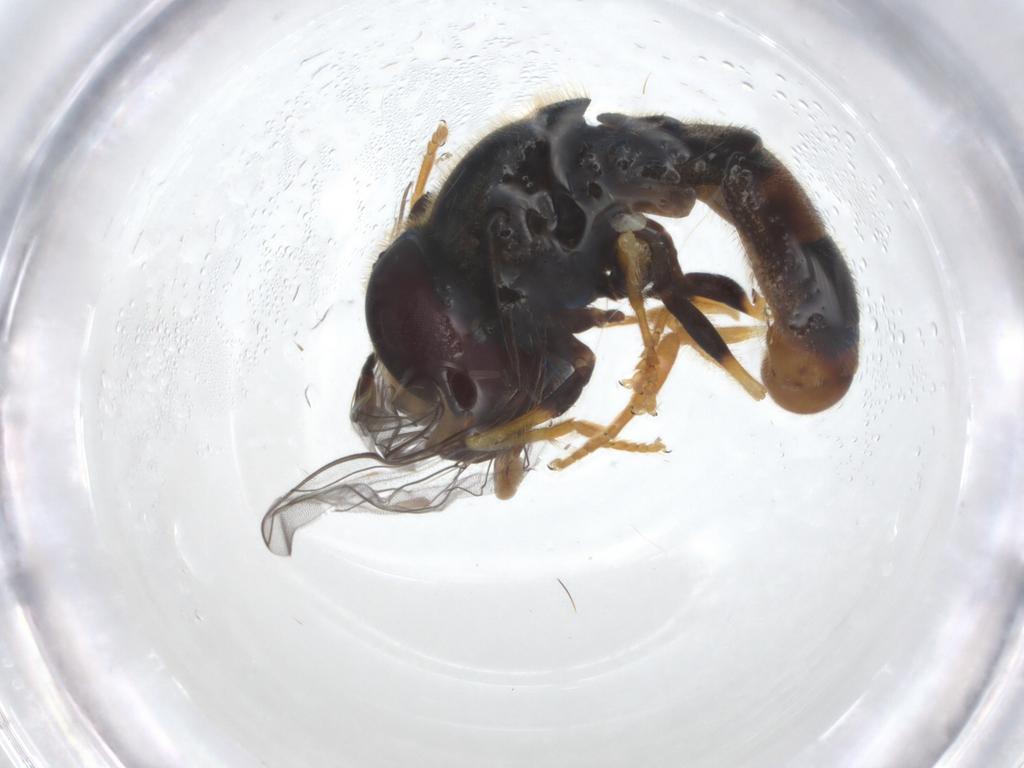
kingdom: Animalia
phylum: Arthropoda
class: Insecta
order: Diptera
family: Syrphidae
